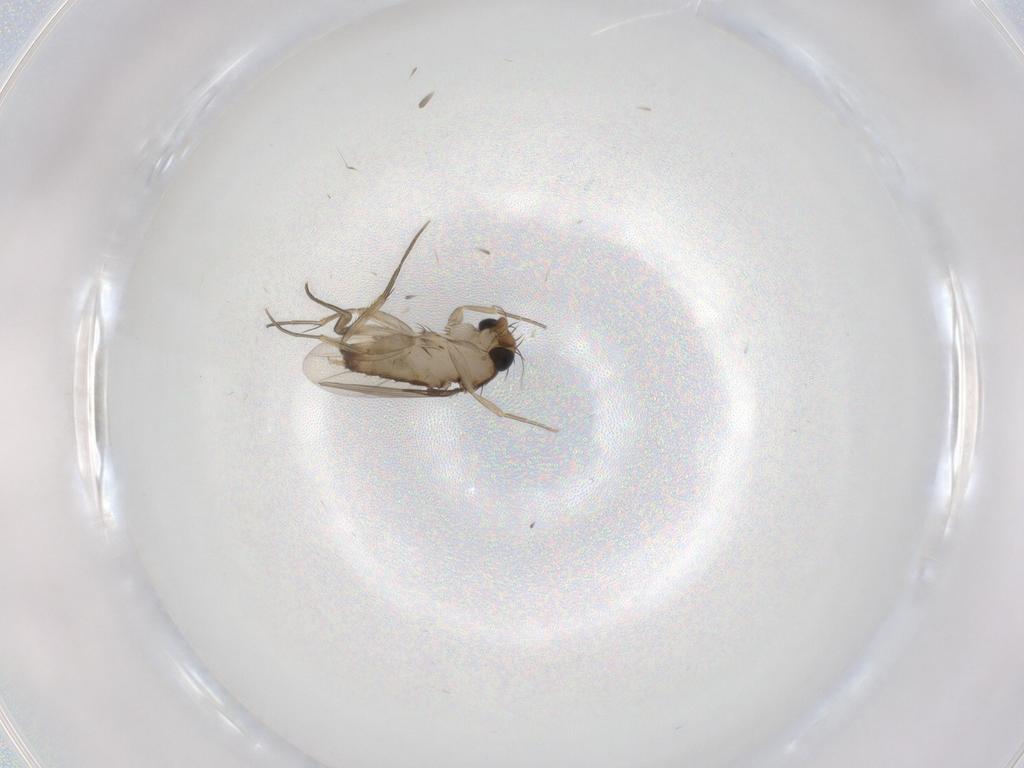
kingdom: Animalia
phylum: Arthropoda
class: Insecta
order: Diptera
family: Phoridae
